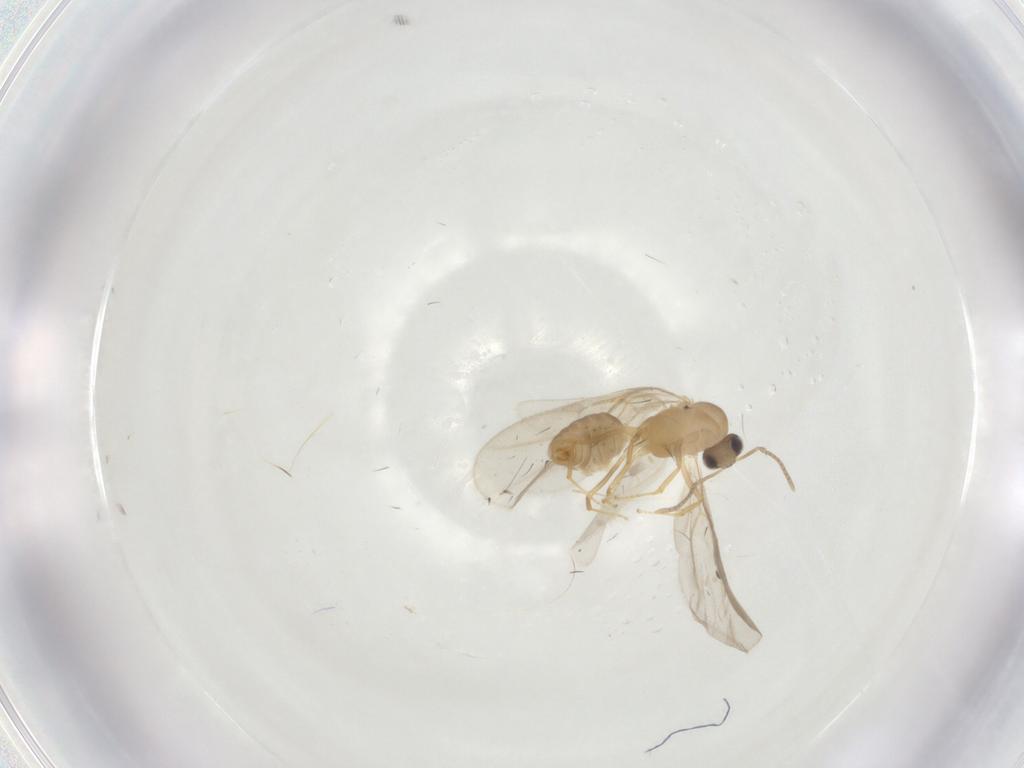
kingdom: Animalia
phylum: Arthropoda
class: Insecta
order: Hymenoptera
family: Formicidae
